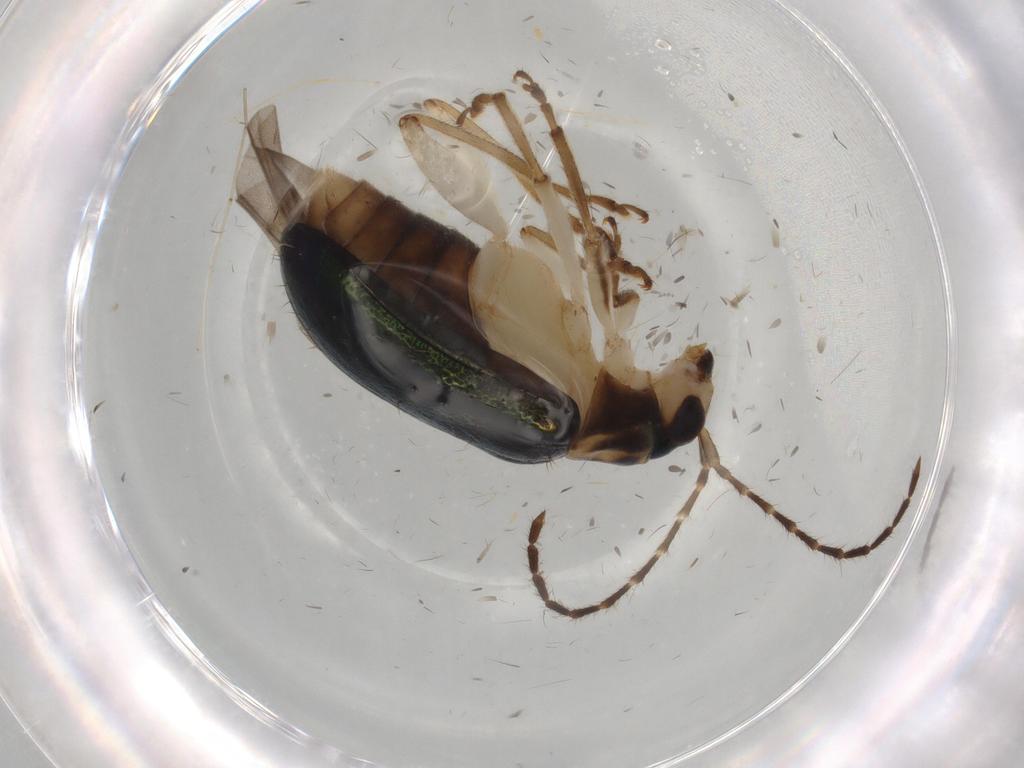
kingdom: Animalia
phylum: Arthropoda
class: Insecta
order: Coleoptera
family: Chrysomelidae
